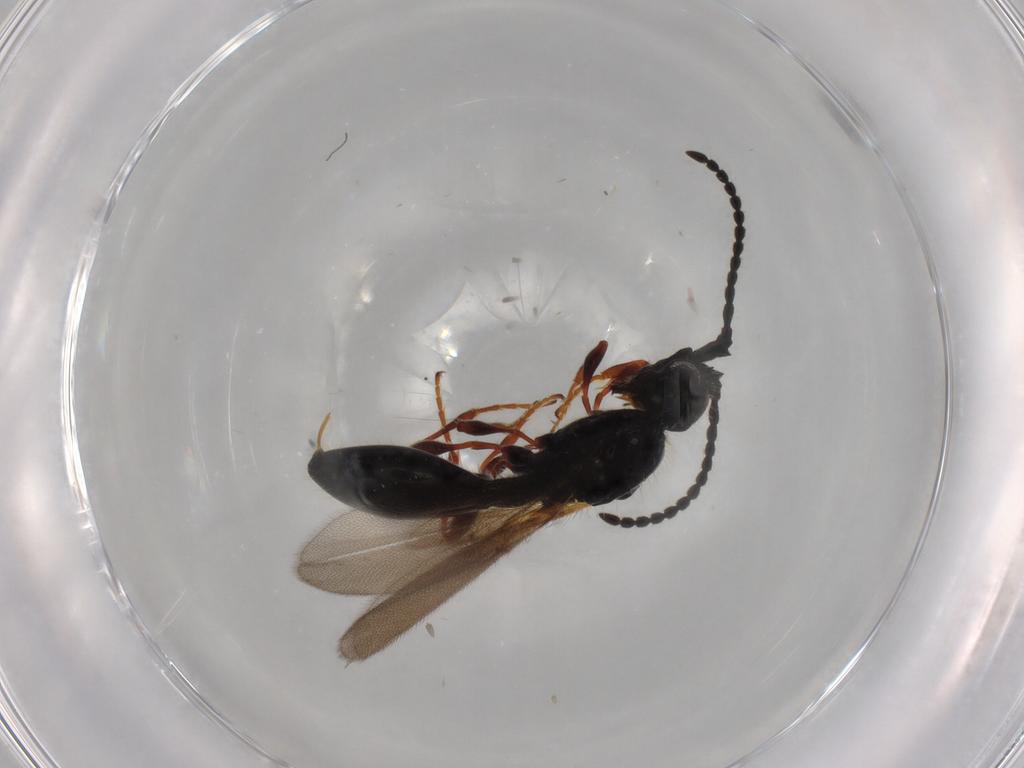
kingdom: Animalia
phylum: Arthropoda
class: Insecta
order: Hymenoptera
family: Diapriidae
